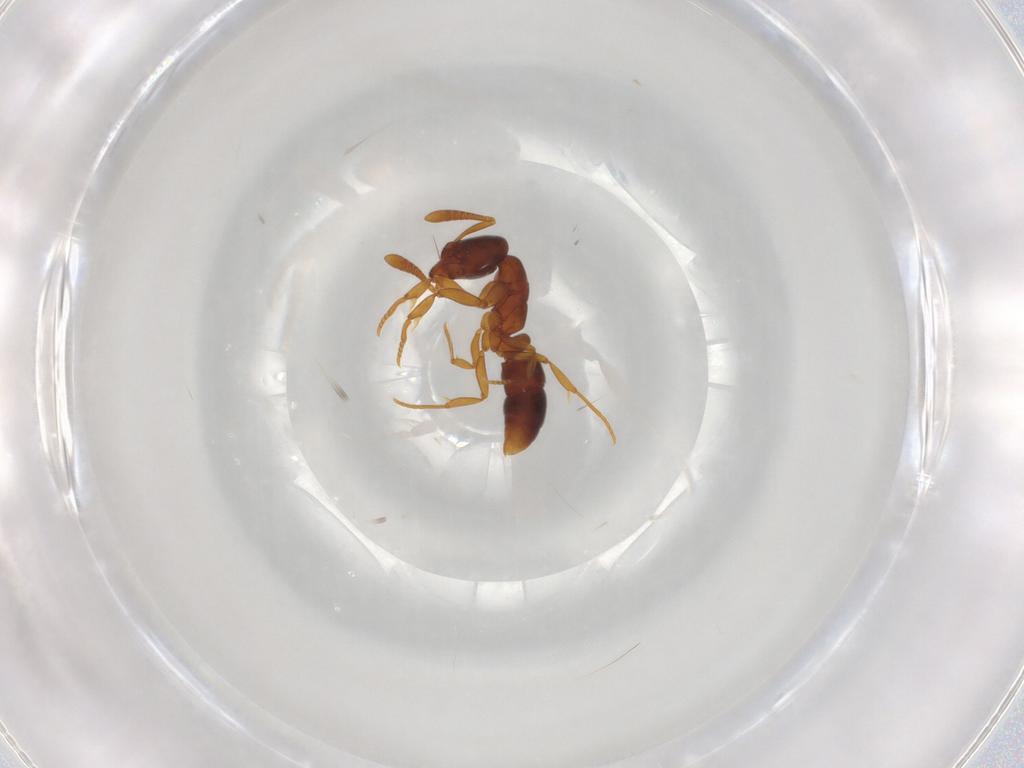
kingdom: Animalia
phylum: Arthropoda
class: Insecta
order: Hymenoptera
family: Formicidae
